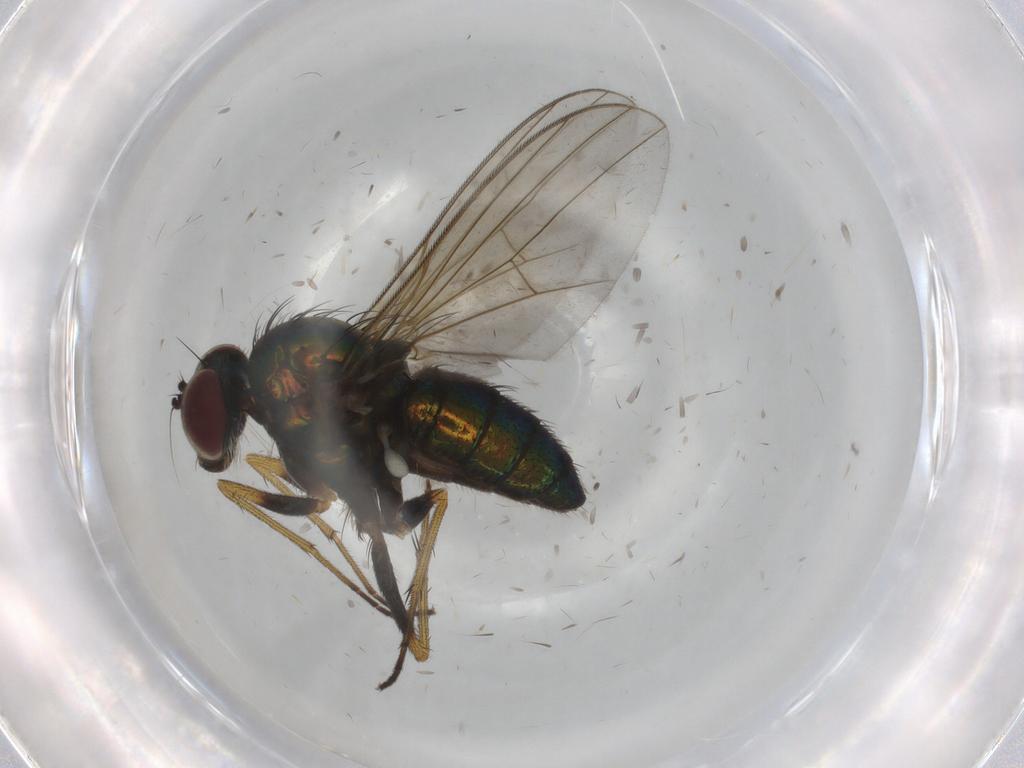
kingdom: Animalia
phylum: Arthropoda
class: Insecta
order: Diptera
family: Dolichopodidae
